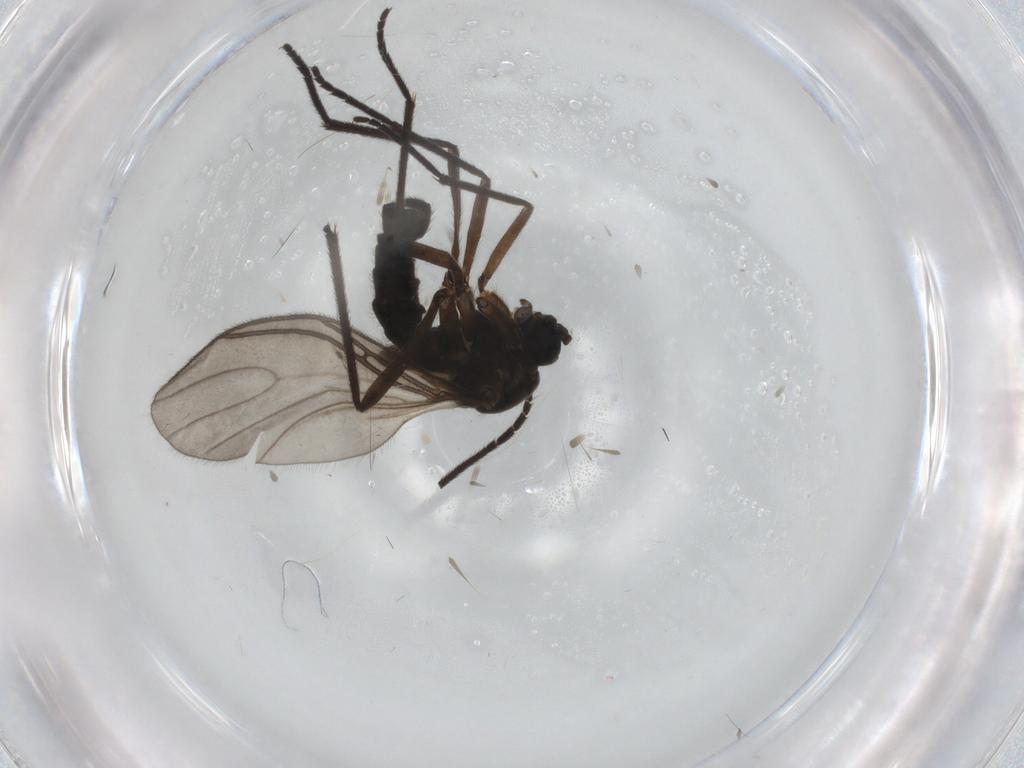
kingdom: Animalia
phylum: Arthropoda
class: Insecta
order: Diptera
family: Sciaridae
